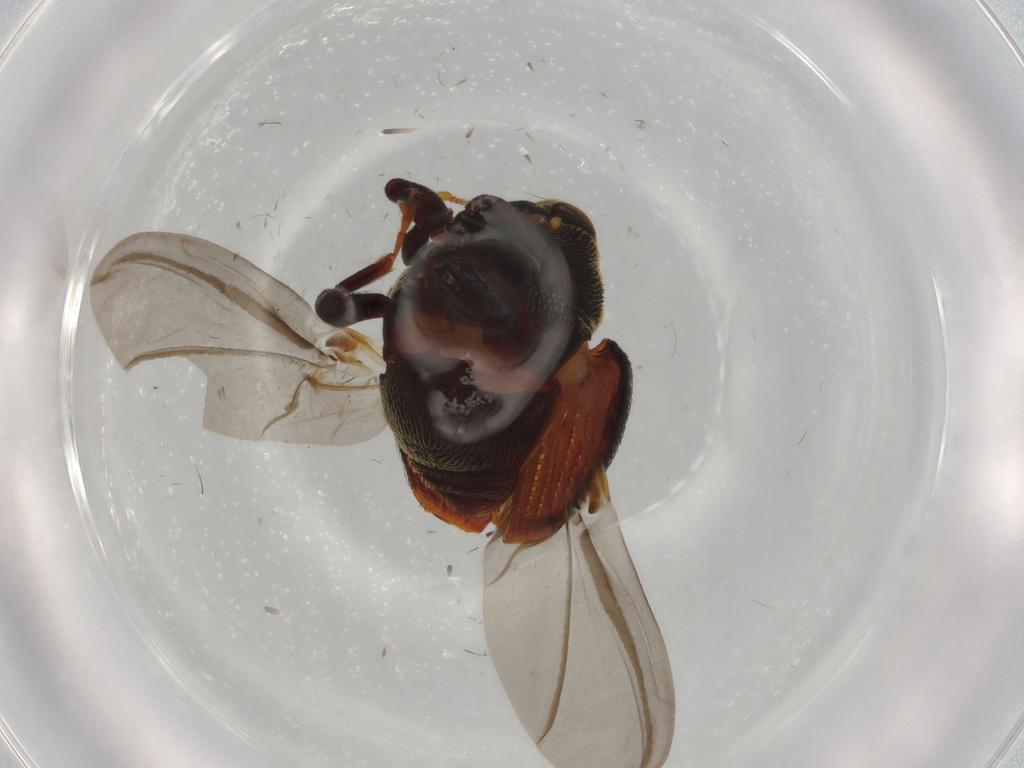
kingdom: Animalia
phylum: Arthropoda
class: Insecta
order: Coleoptera
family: Curculionidae
